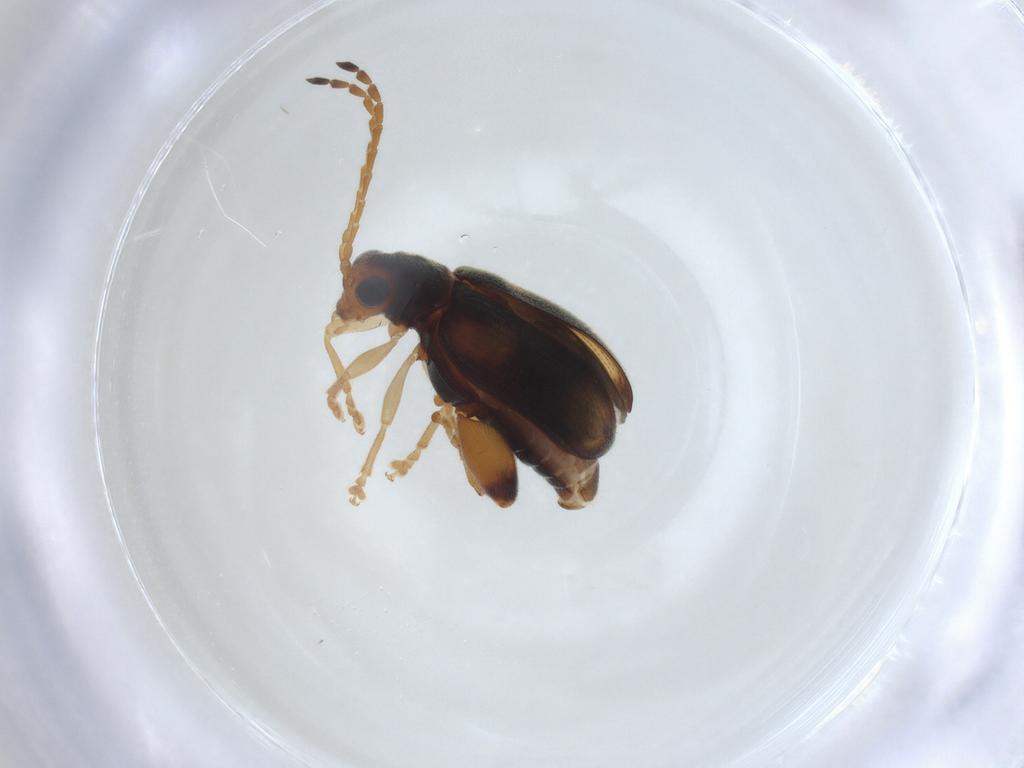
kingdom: Animalia
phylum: Arthropoda
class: Insecta
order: Coleoptera
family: Chrysomelidae
